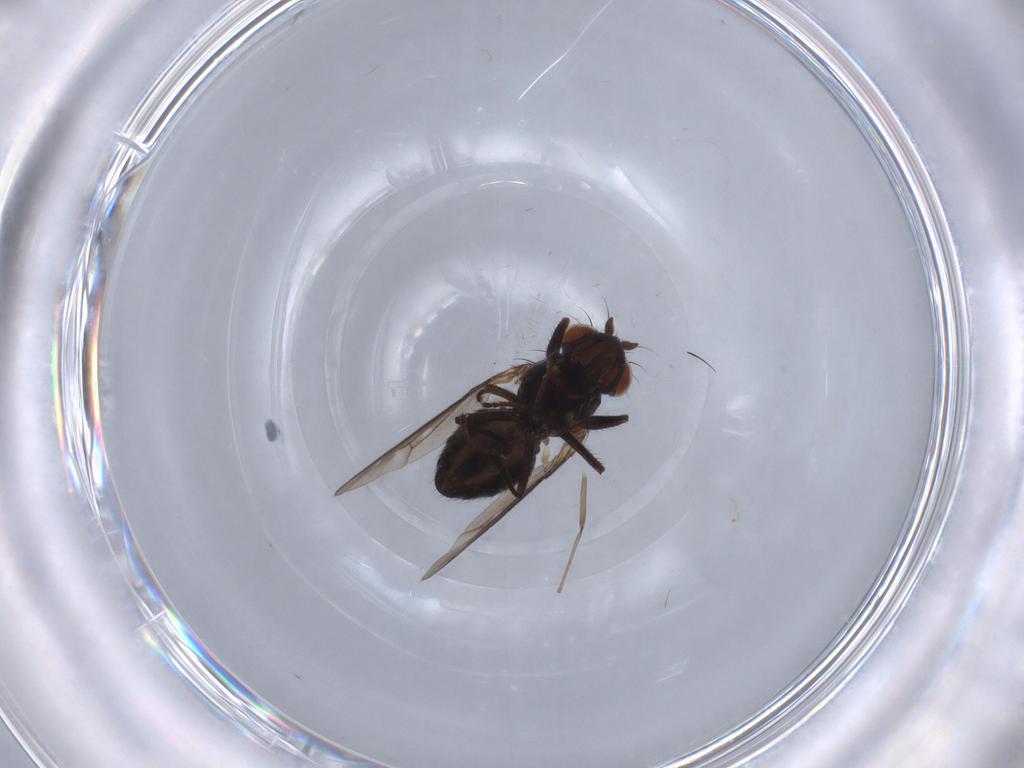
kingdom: Animalia
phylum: Arthropoda
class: Insecta
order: Diptera
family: Ephydridae
